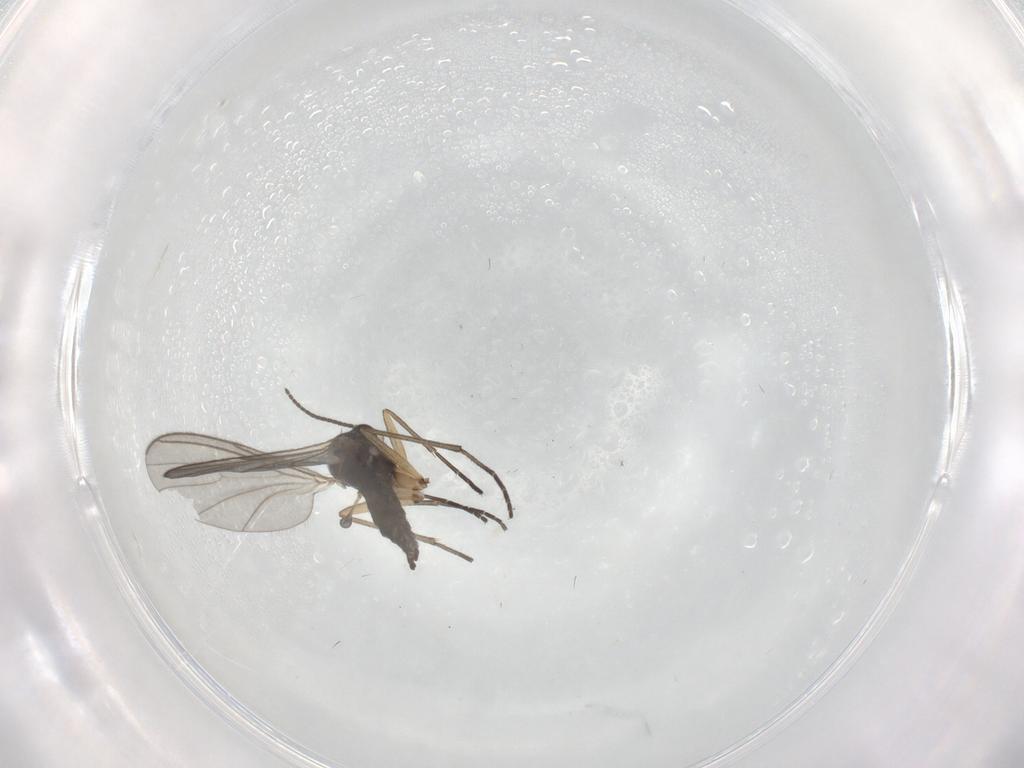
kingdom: Animalia
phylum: Arthropoda
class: Insecta
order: Diptera
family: Sciaridae
